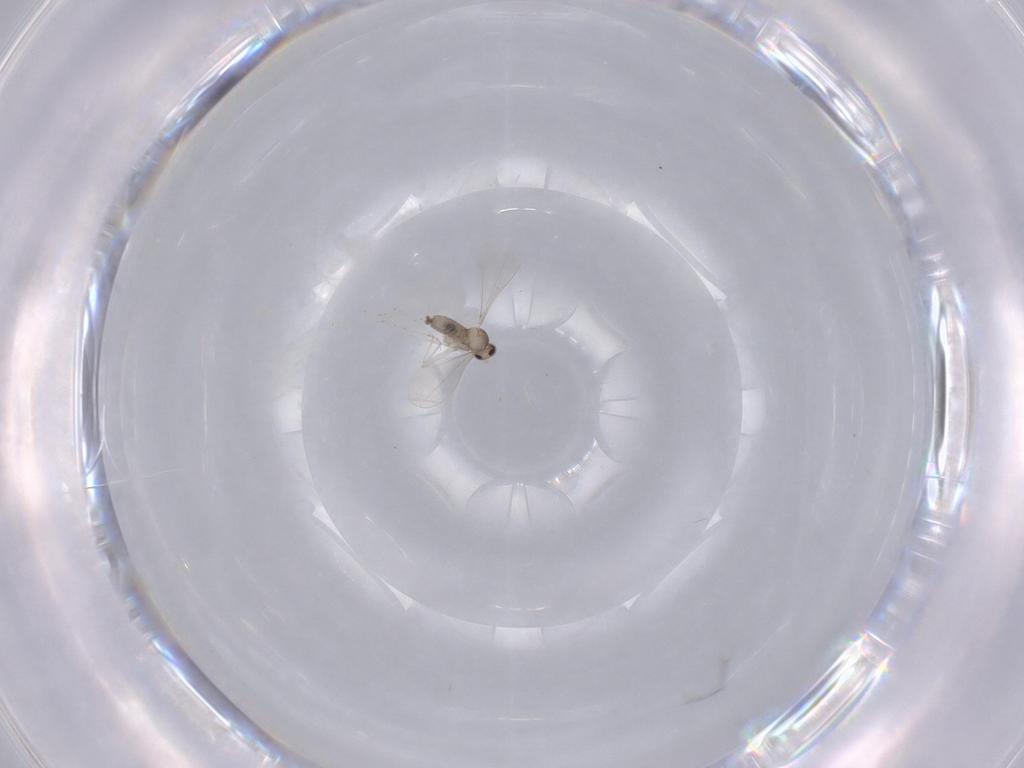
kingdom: Animalia
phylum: Arthropoda
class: Insecta
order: Diptera
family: Cecidomyiidae
